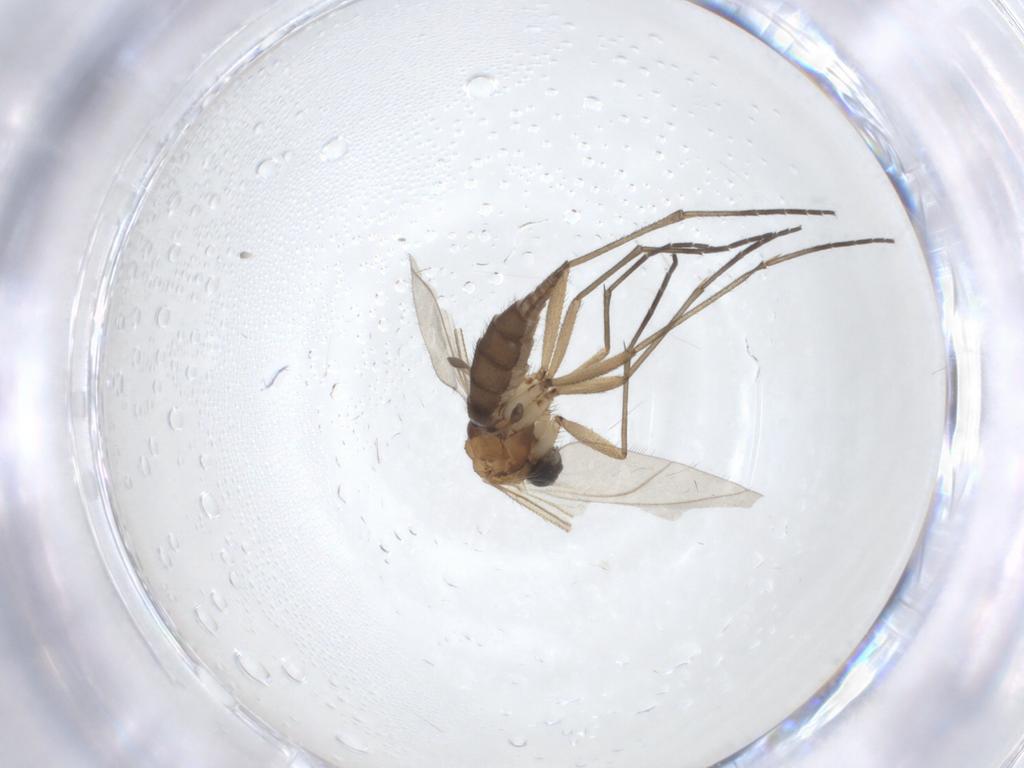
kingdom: Animalia
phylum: Arthropoda
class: Insecta
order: Diptera
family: Sciaridae
